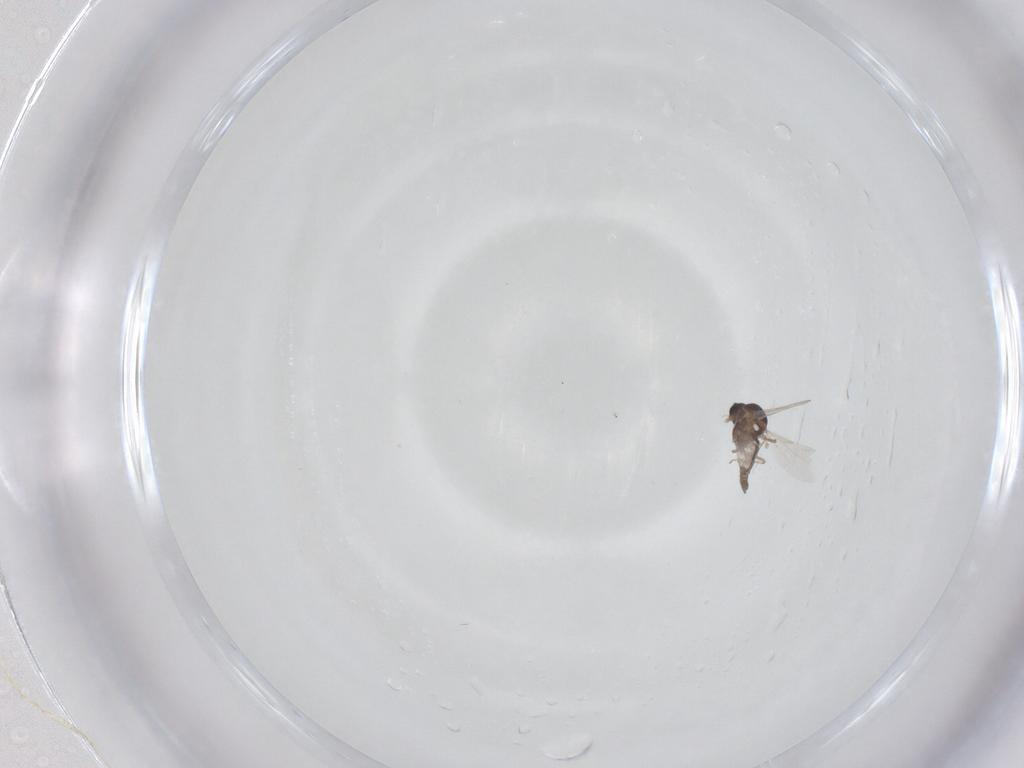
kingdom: Animalia
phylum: Arthropoda
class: Insecta
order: Diptera
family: Ceratopogonidae
